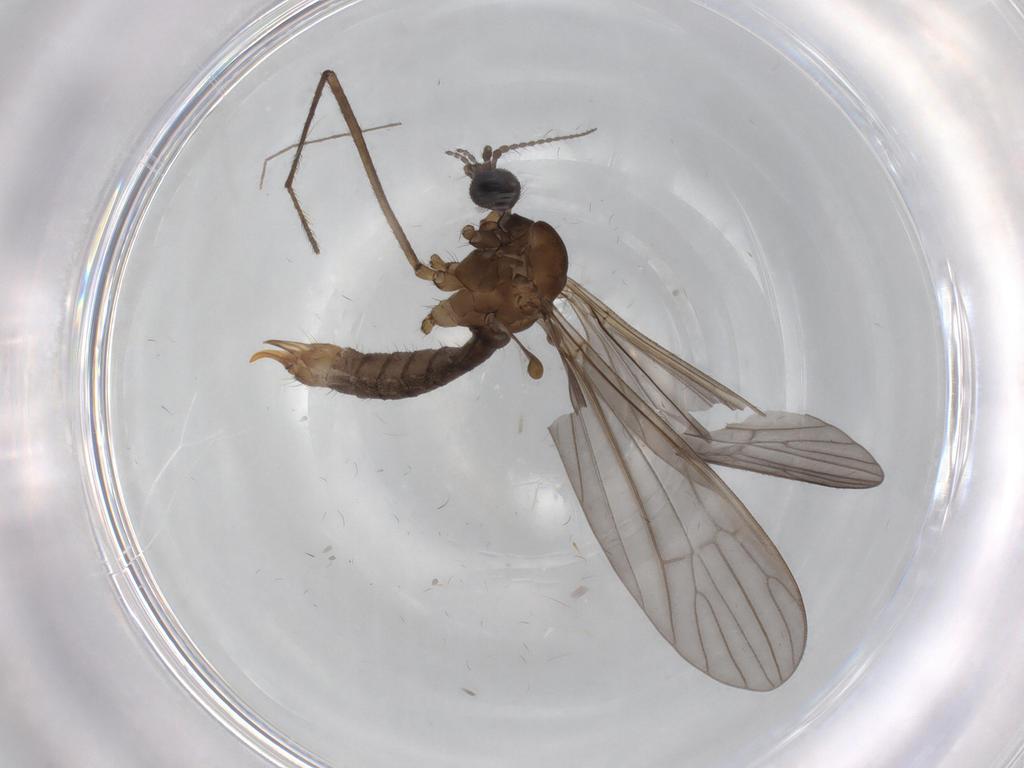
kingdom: Animalia
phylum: Arthropoda
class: Insecta
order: Diptera
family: Limoniidae
